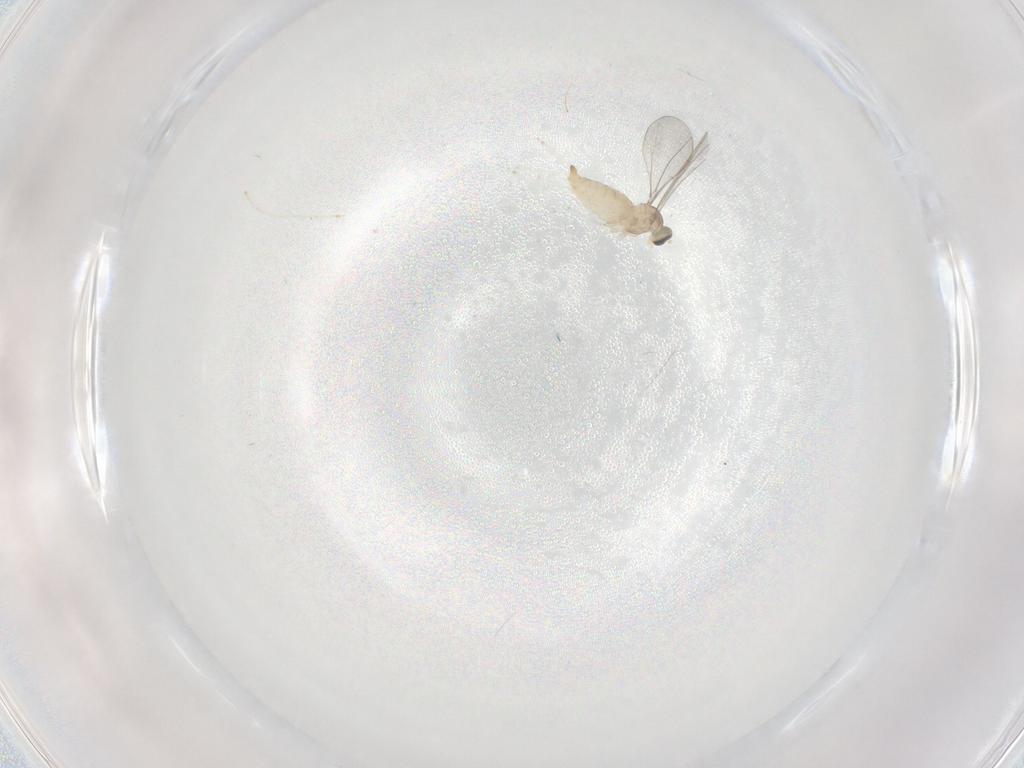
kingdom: Animalia
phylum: Arthropoda
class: Insecta
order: Diptera
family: Cecidomyiidae
